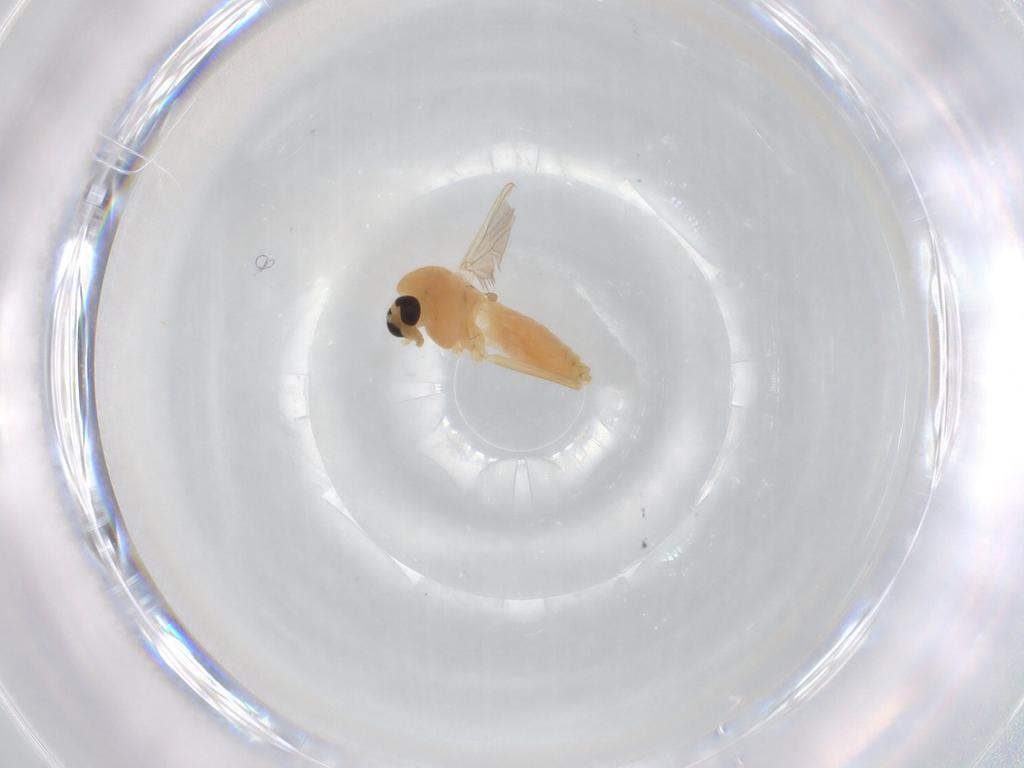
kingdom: Animalia
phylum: Arthropoda
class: Insecta
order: Diptera
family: Chironomidae
